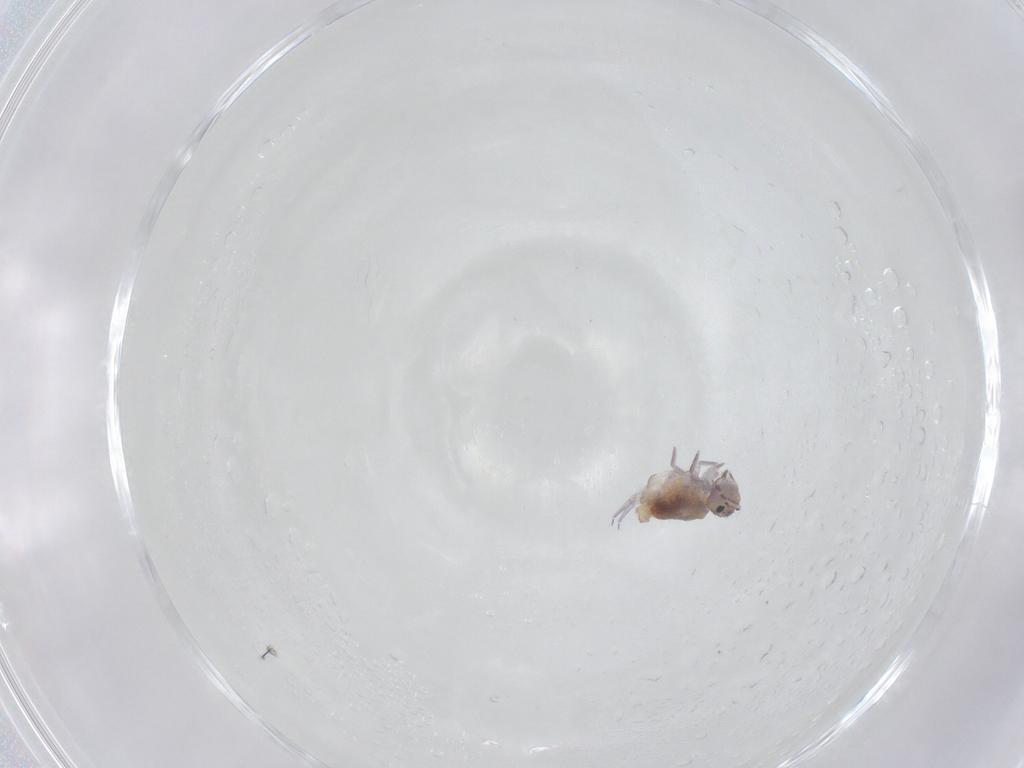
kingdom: Animalia
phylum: Arthropoda
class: Collembola
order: Symphypleona
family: Sminthuridae
